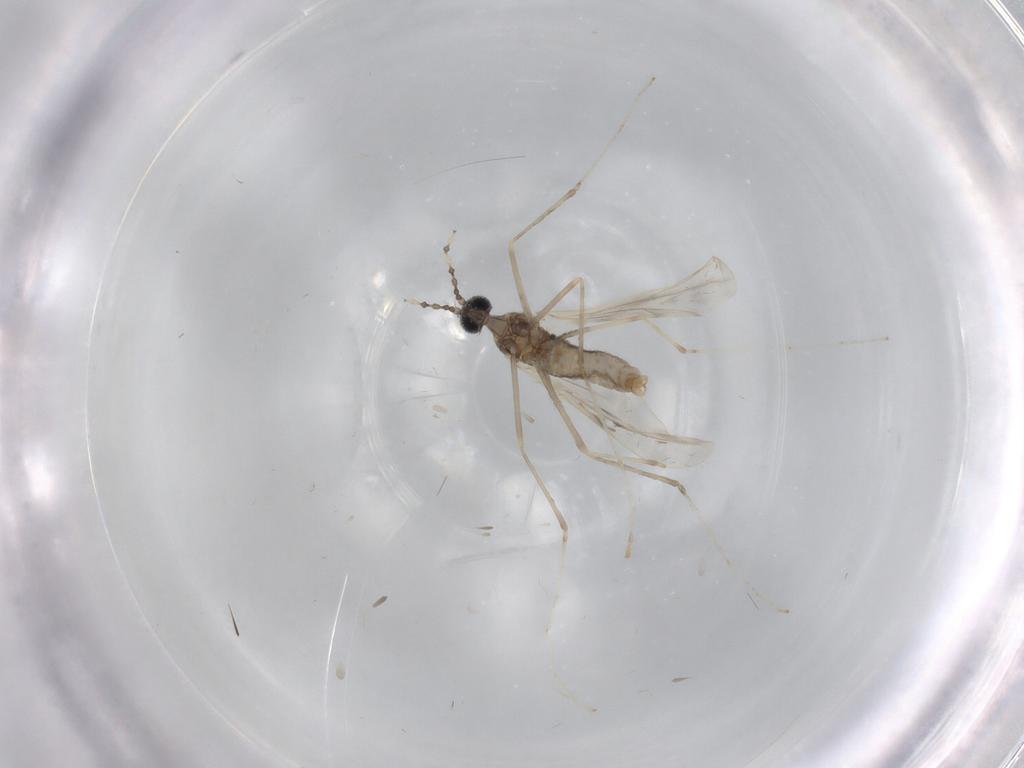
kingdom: Animalia
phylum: Arthropoda
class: Insecta
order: Diptera
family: Cecidomyiidae
